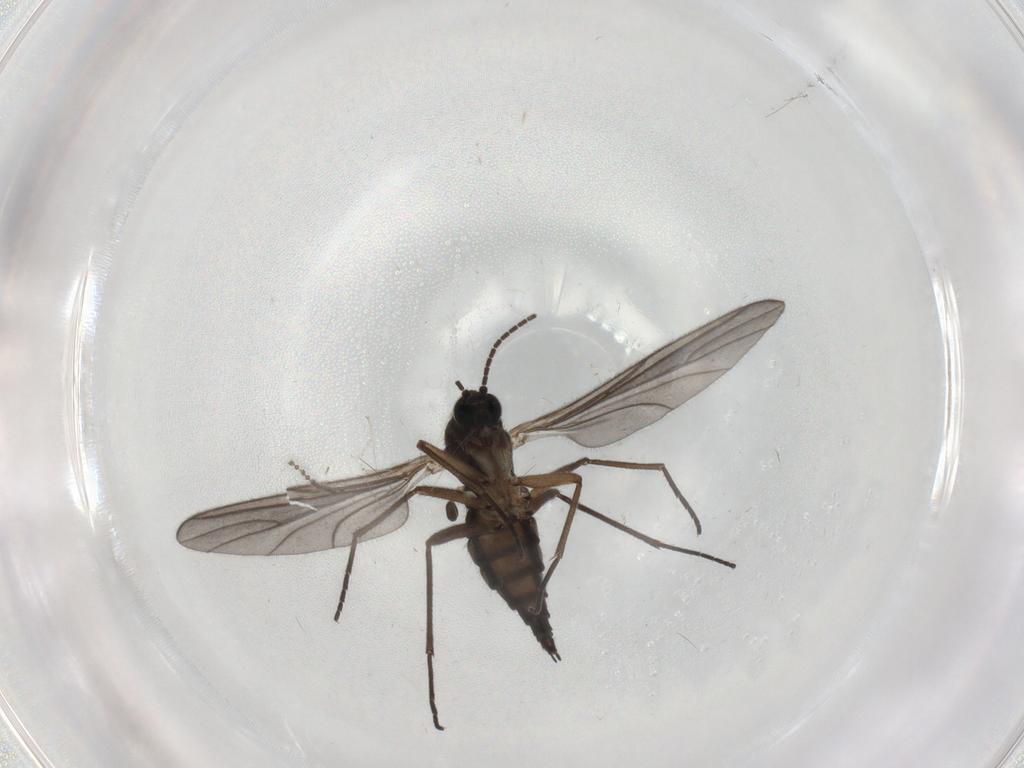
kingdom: Animalia
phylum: Arthropoda
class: Insecta
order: Diptera
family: Sciaridae
